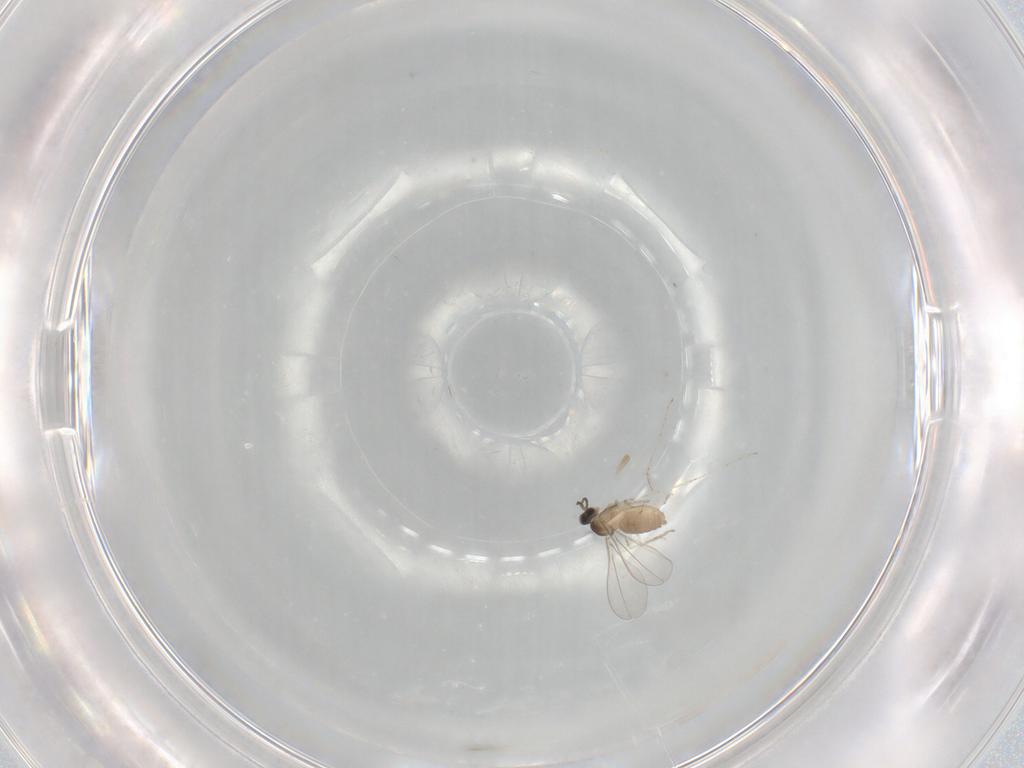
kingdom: Animalia
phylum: Arthropoda
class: Insecta
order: Diptera
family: Cecidomyiidae
